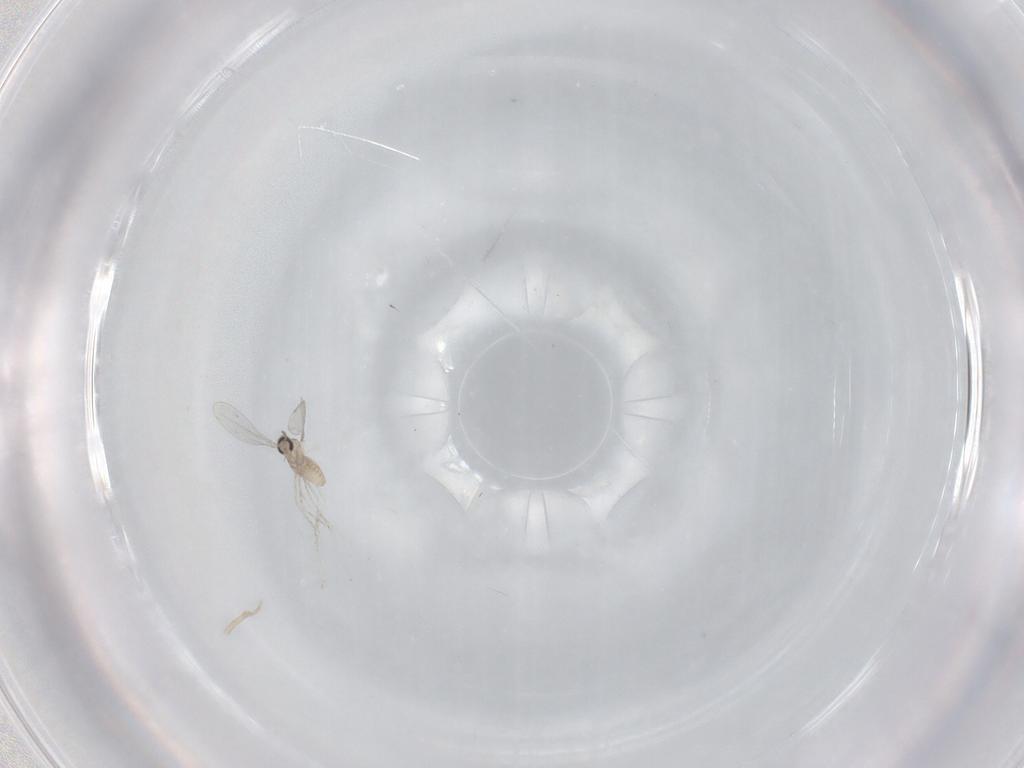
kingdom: Animalia
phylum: Arthropoda
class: Insecta
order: Diptera
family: Cecidomyiidae
